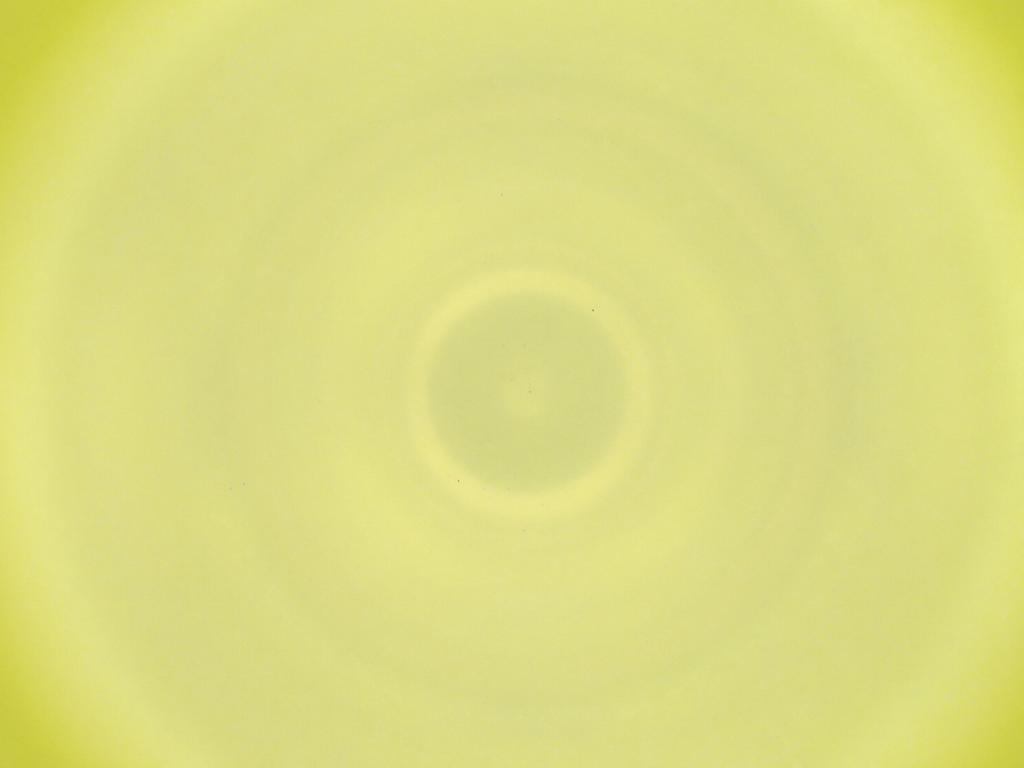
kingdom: Animalia
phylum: Arthropoda
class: Insecta
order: Diptera
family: Cecidomyiidae
